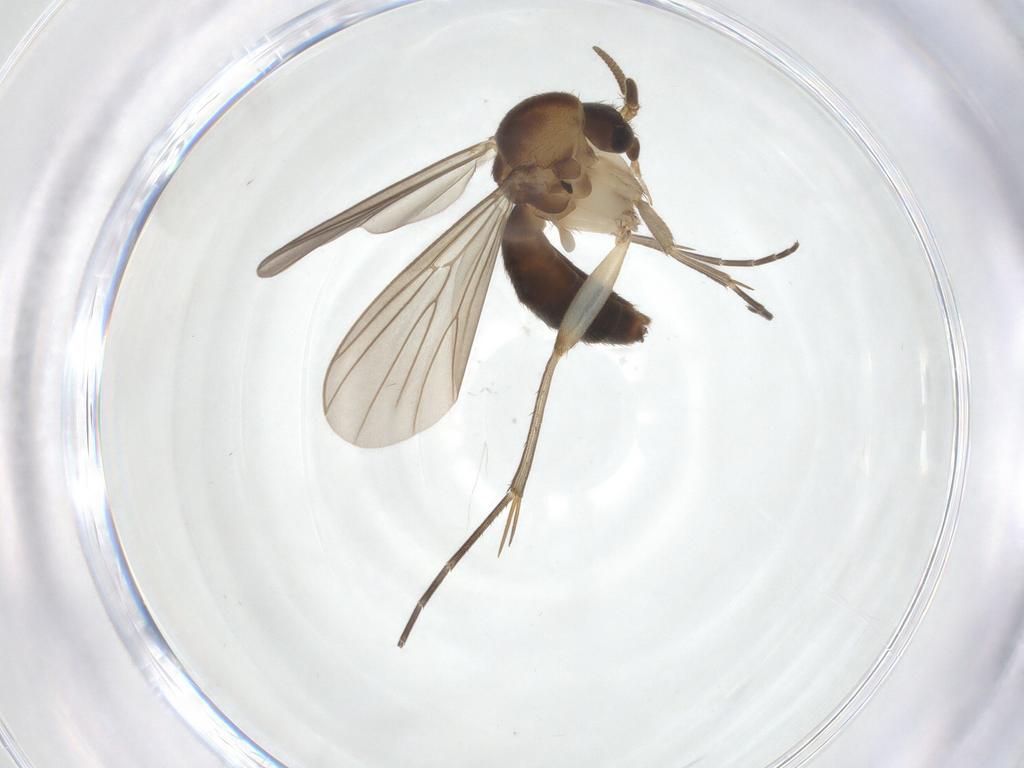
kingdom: Animalia
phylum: Arthropoda
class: Insecta
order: Diptera
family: Mycetophilidae
